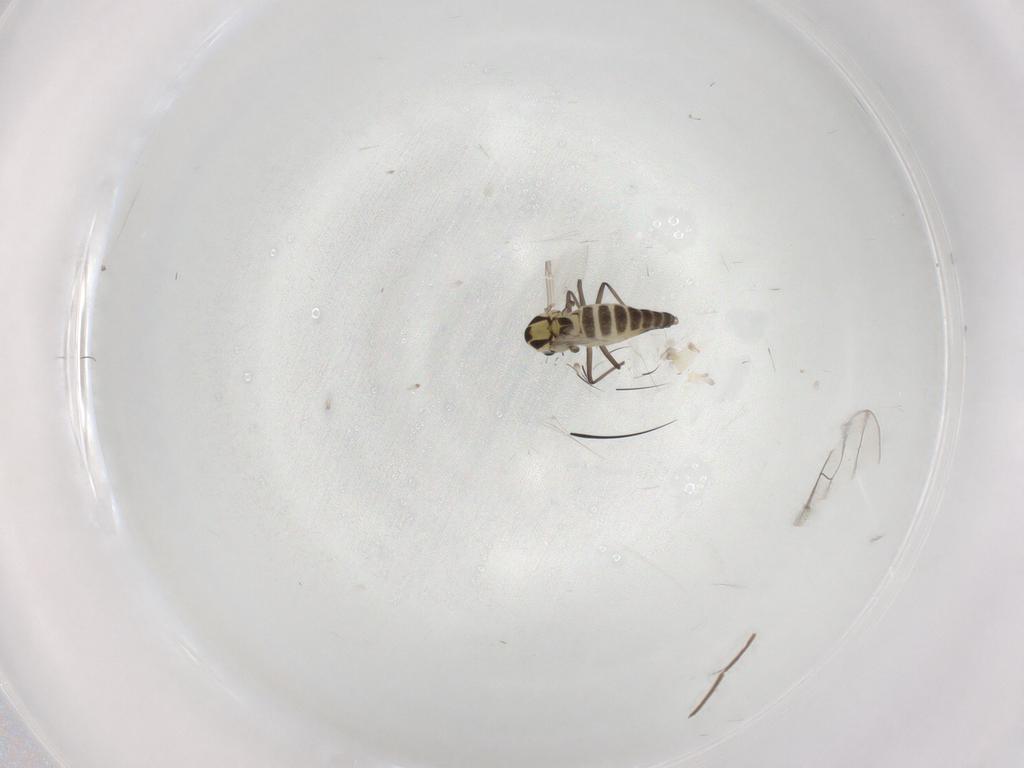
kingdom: Animalia
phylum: Arthropoda
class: Insecta
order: Diptera
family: Chironomidae
